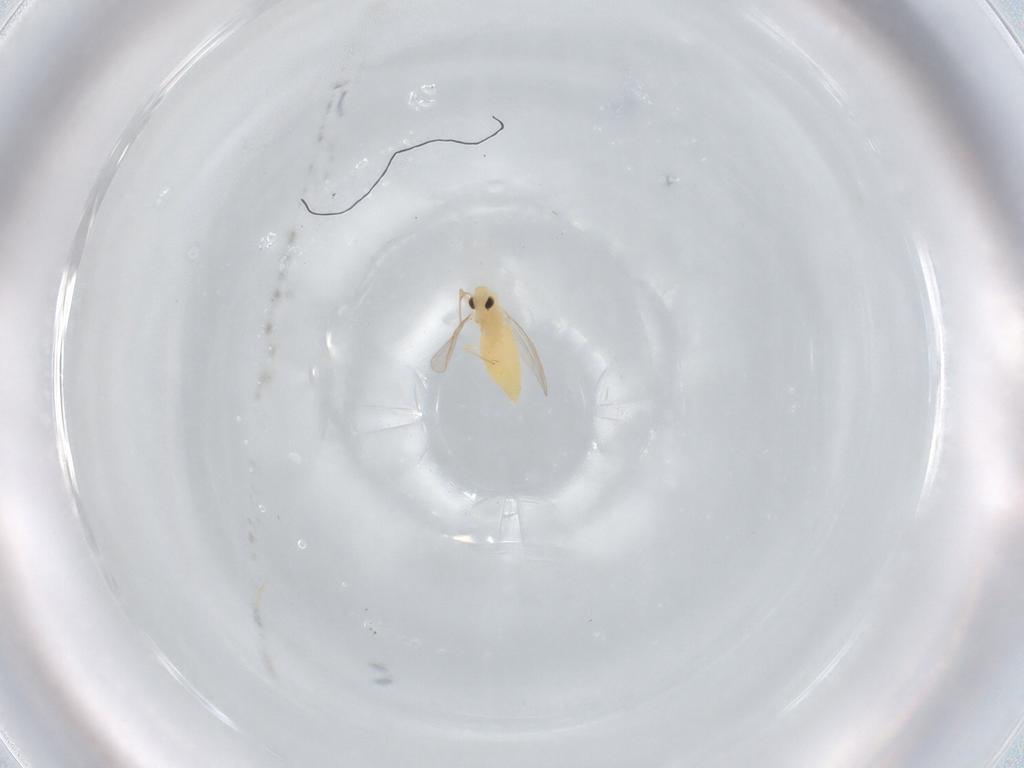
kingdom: Animalia
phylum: Arthropoda
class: Insecta
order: Diptera
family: Chironomidae
